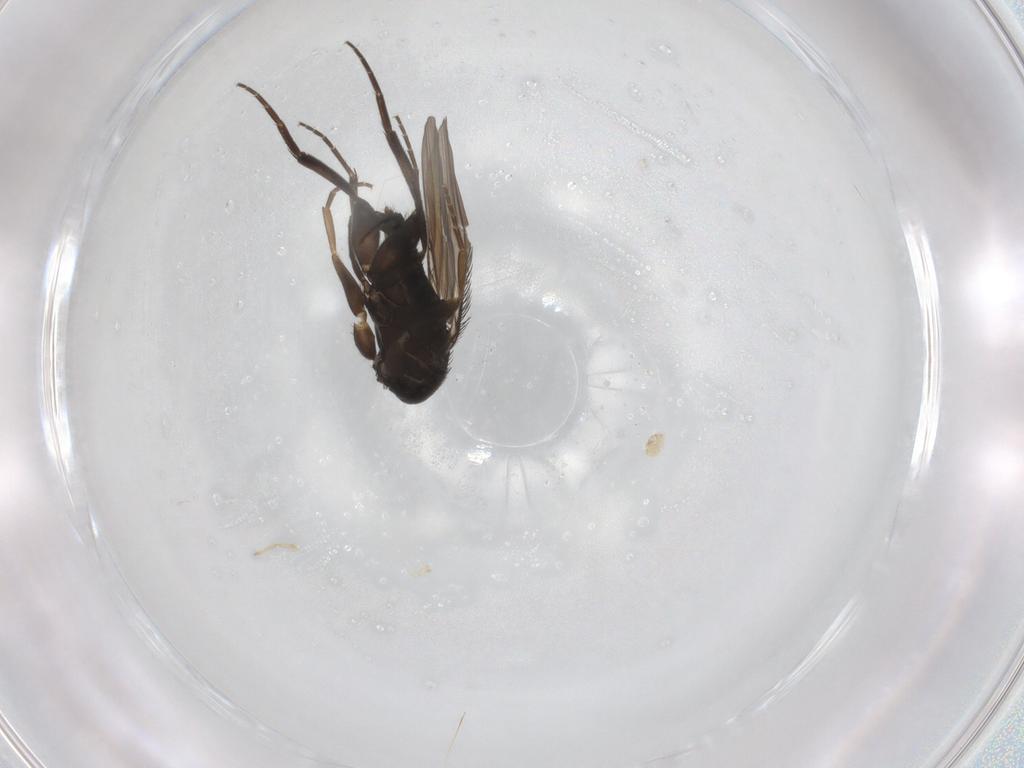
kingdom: Animalia
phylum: Arthropoda
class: Insecta
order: Diptera
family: Phoridae
